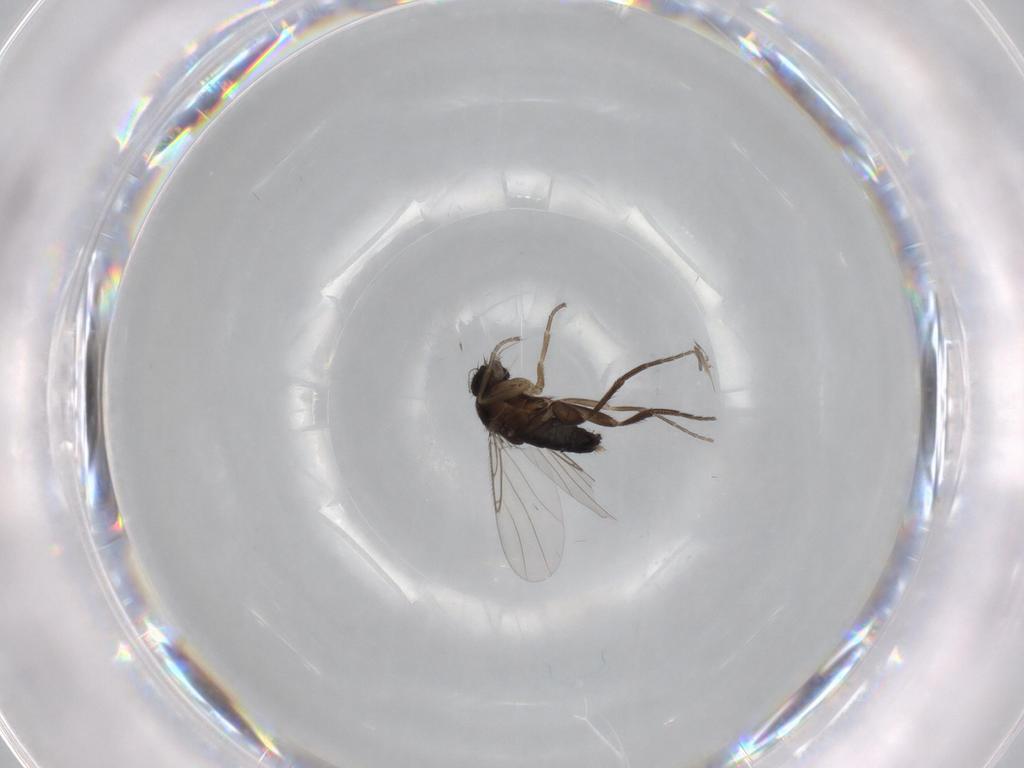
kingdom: Animalia
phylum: Arthropoda
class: Insecta
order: Diptera
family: Phoridae
